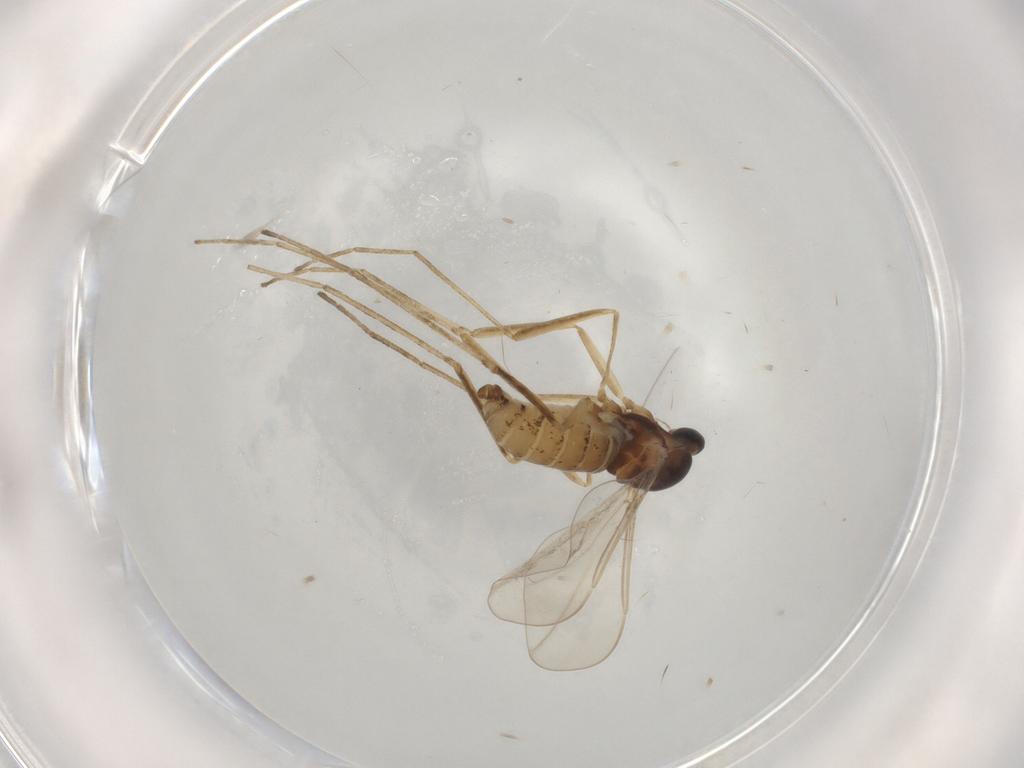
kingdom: Animalia
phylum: Arthropoda
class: Insecta
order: Diptera
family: Cecidomyiidae
